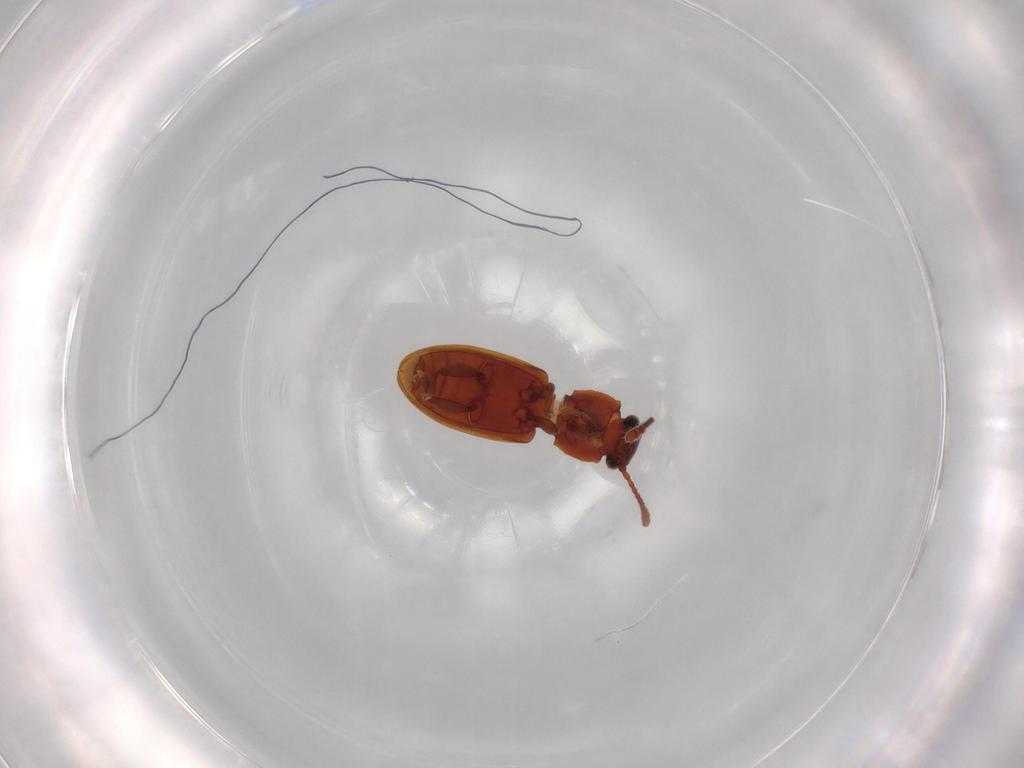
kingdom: Animalia
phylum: Arthropoda
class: Insecta
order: Coleoptera
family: Silvanidae
